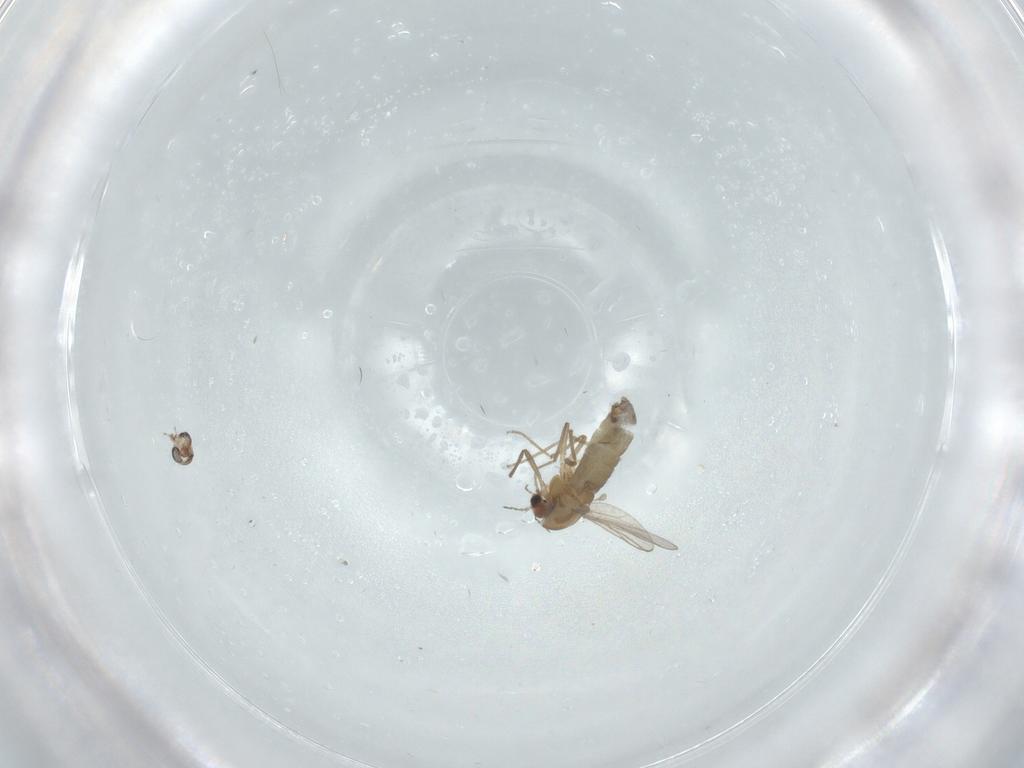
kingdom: Animalia
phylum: Arthropoda
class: Insecta
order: Diptera
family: Chironomidae
